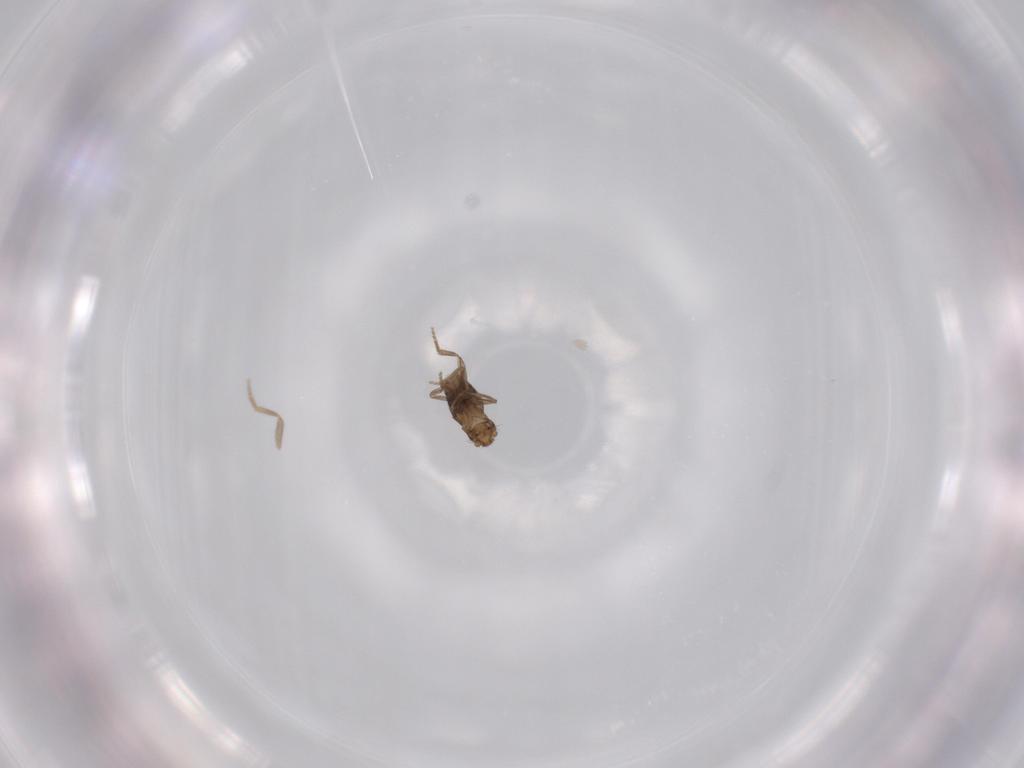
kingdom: Animalia
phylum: Arthropoda
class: Insecta
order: Diptera
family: Phoridae
